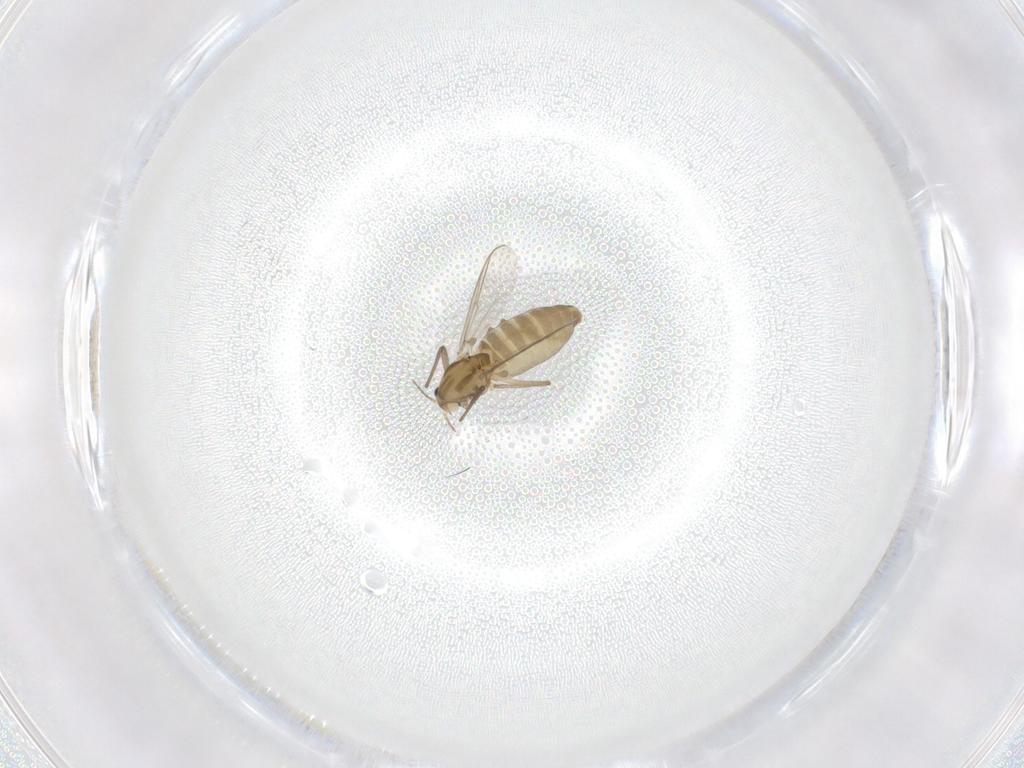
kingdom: Animalia
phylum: Arthropoda
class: Insecta
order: Diptera
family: Chironomidae
